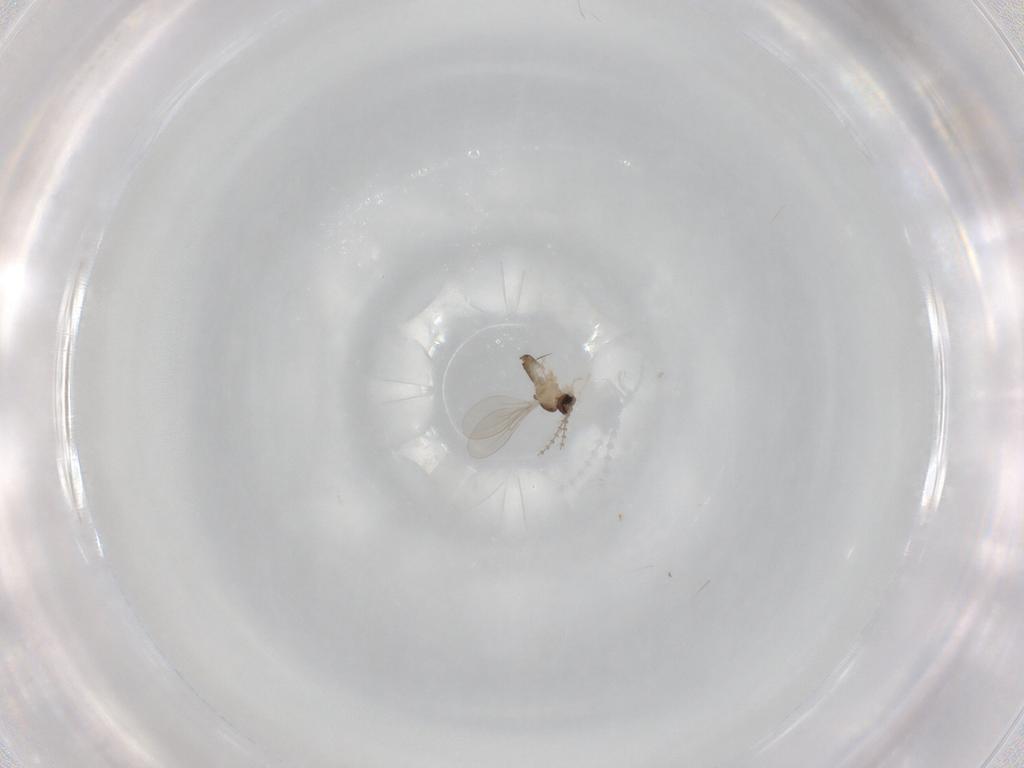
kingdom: Animalia
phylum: Arthropoda
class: Insecta
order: Diptera
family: Cecidomyiidae
